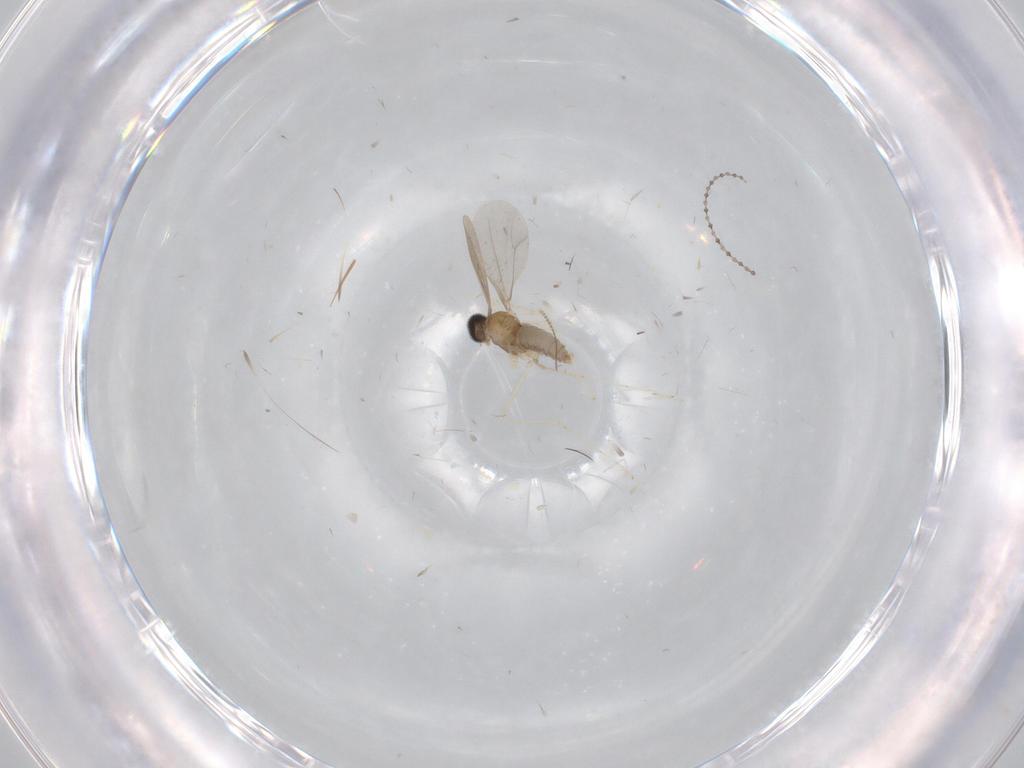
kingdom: Animalia
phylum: Arthropoda
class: Insecta
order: Diptera
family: Chironomidae
